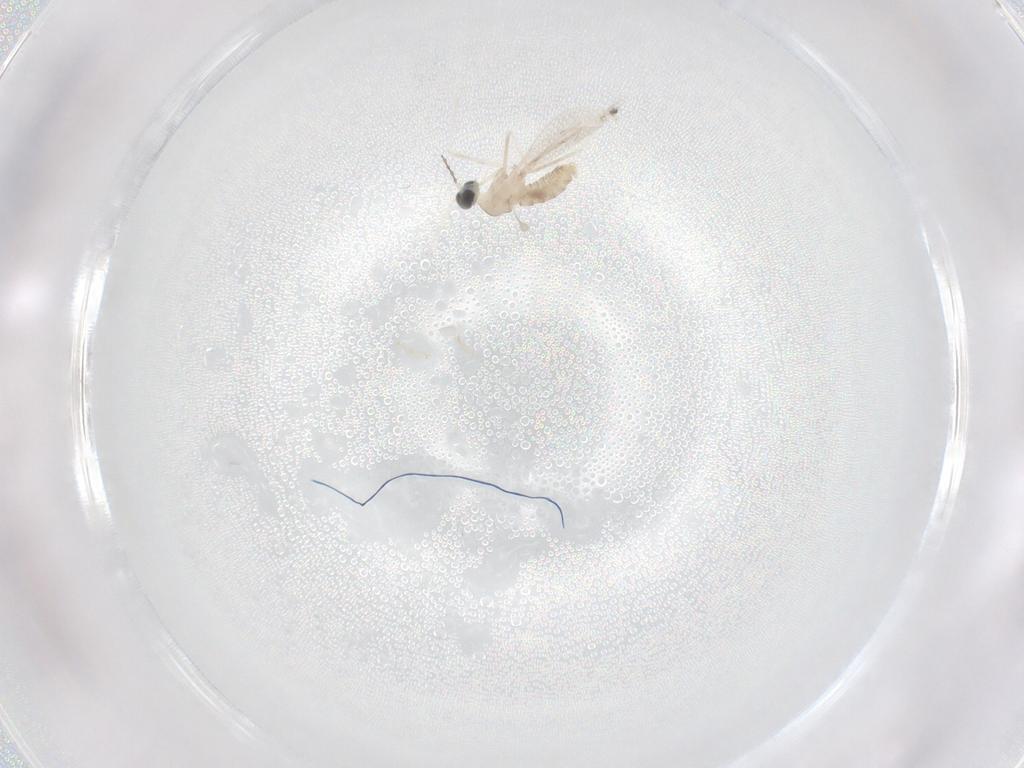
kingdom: Animalia
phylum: Arthropoda
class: Insecta
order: Diptera
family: Cecidomyiidae
